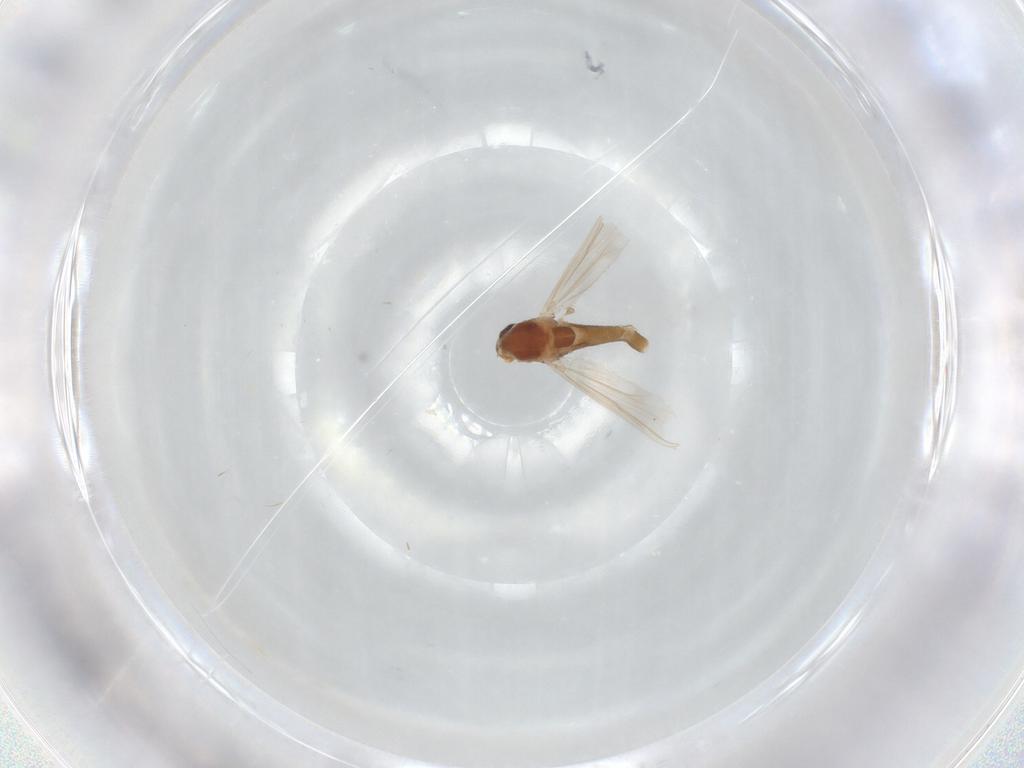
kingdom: Animalia
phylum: Arthropoda
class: Insecta
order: Diptera
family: Chironomidae
